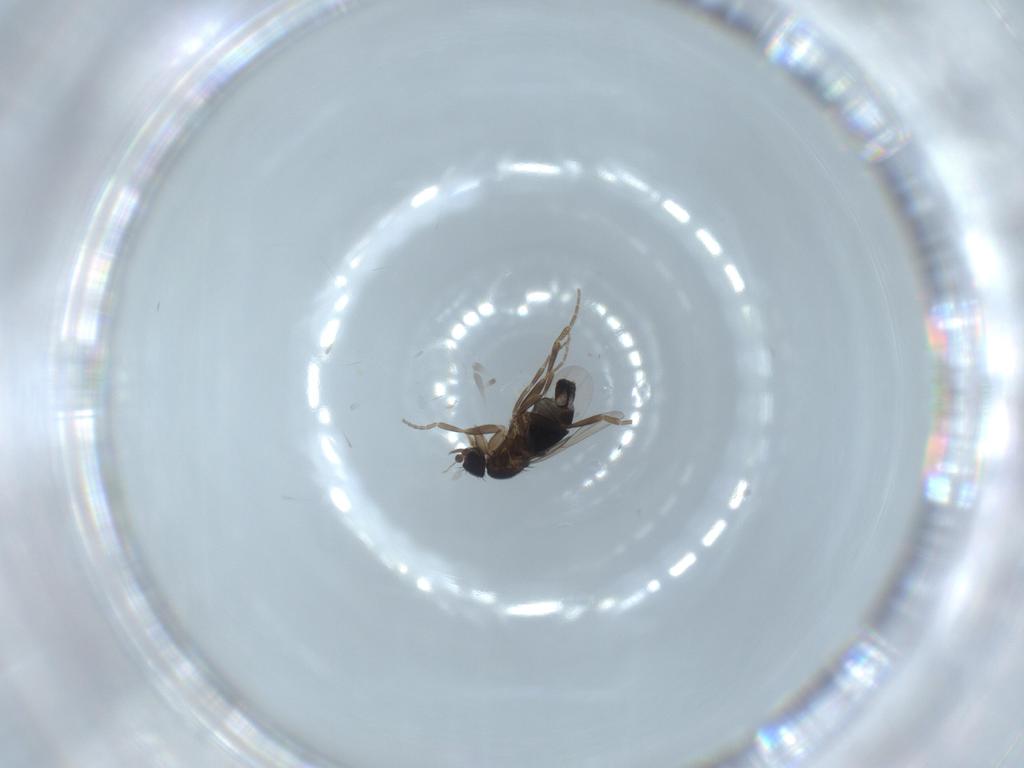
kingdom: Animalia
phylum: Arthropoda
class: Insecta
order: Diptera
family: Phoridae
